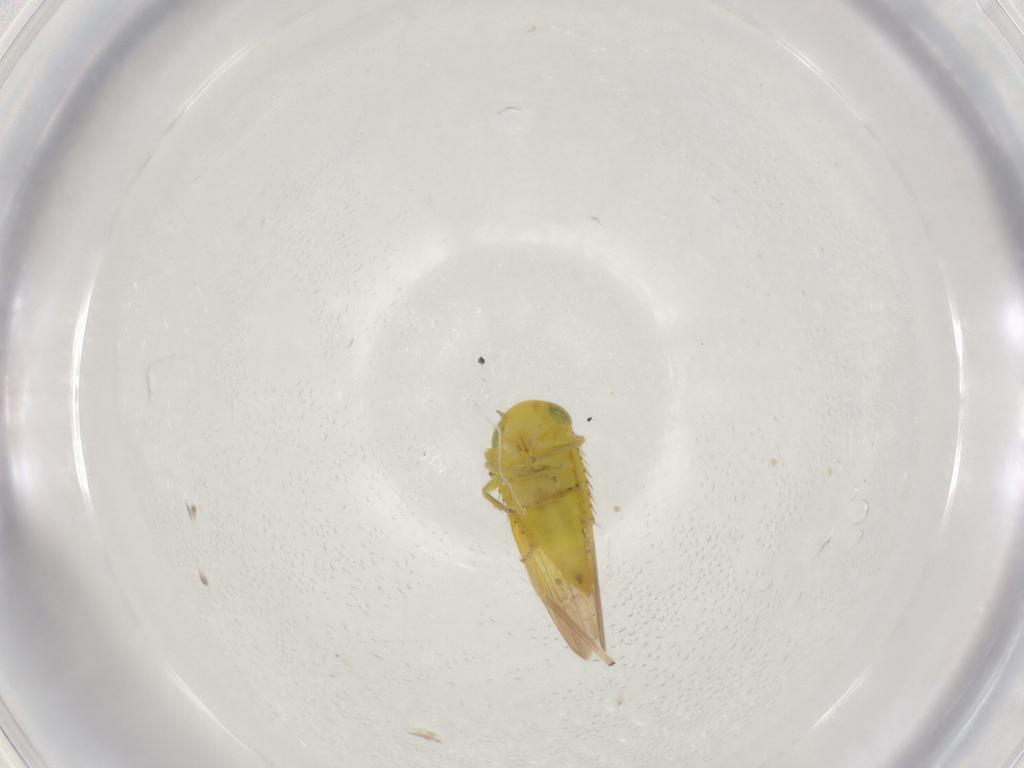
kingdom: Animalia
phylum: Arthropoda
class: Insecta
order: Hemiptera
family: Cicadellidae
